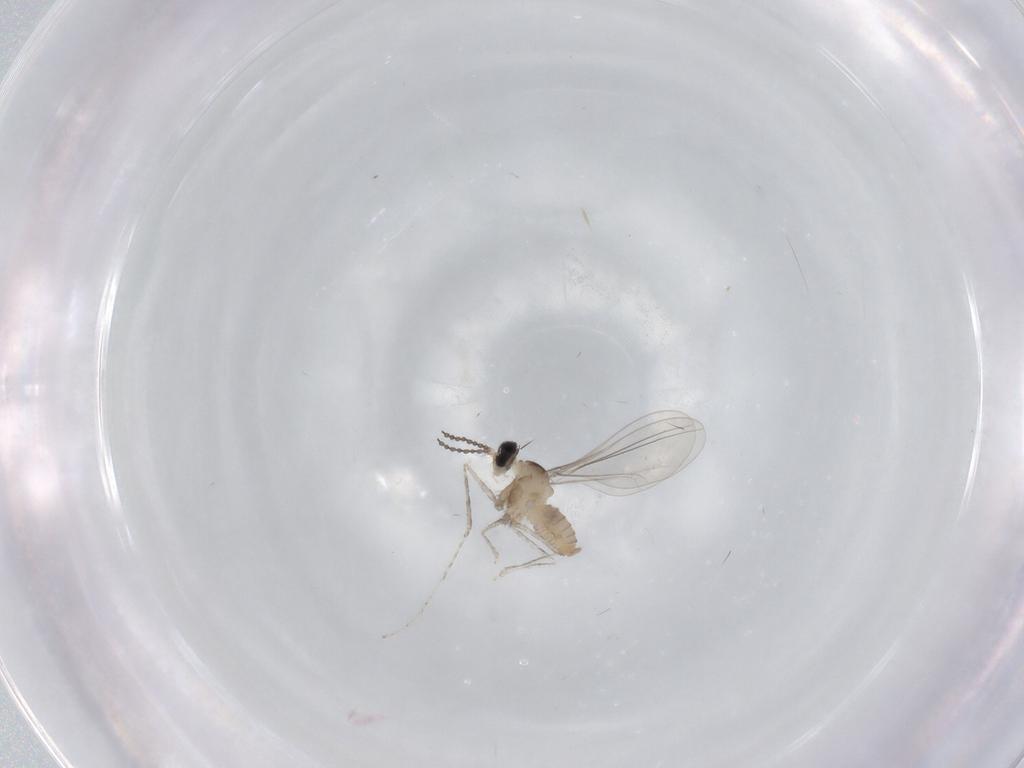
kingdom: Animalia
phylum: Arthropoda
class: Insecta
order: Diptera
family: Cecidomyiidae
